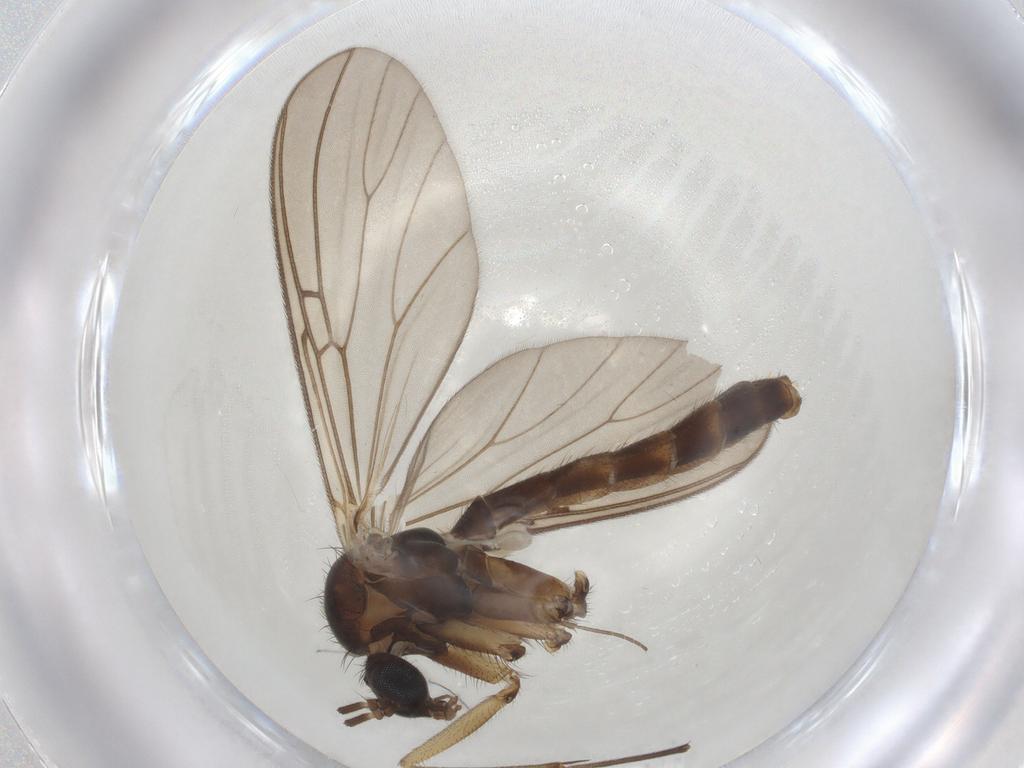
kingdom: Animalia
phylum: Arthropoda
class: Insecta
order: Diptera
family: Mycetophilidae
